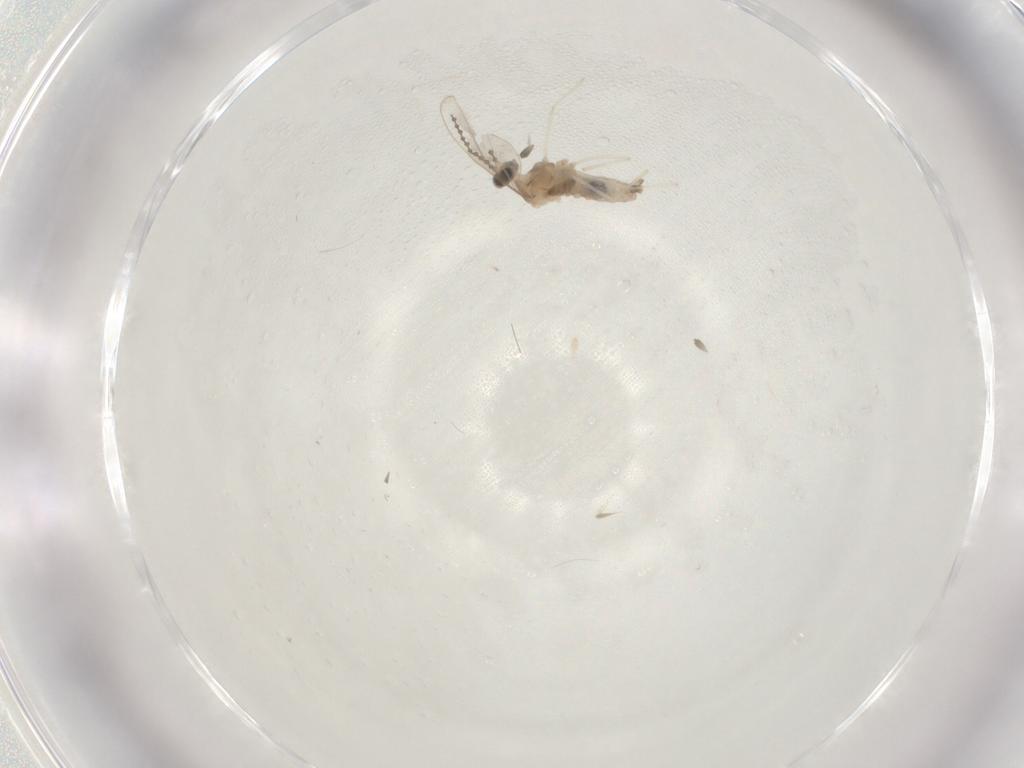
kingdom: Animalia
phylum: Arthropoda
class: Insecta
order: Diptera
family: Cecidomyiidae
